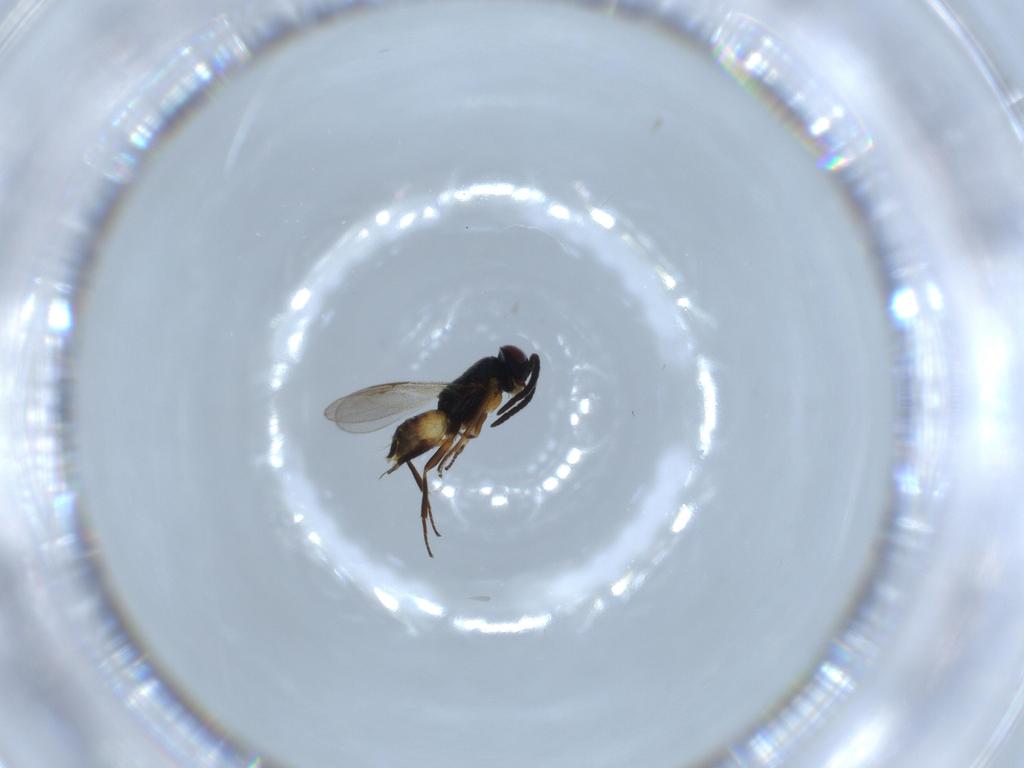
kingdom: Animalia
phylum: Arthropoda
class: Insecta
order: Hymenoptera
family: Encyrtidae
